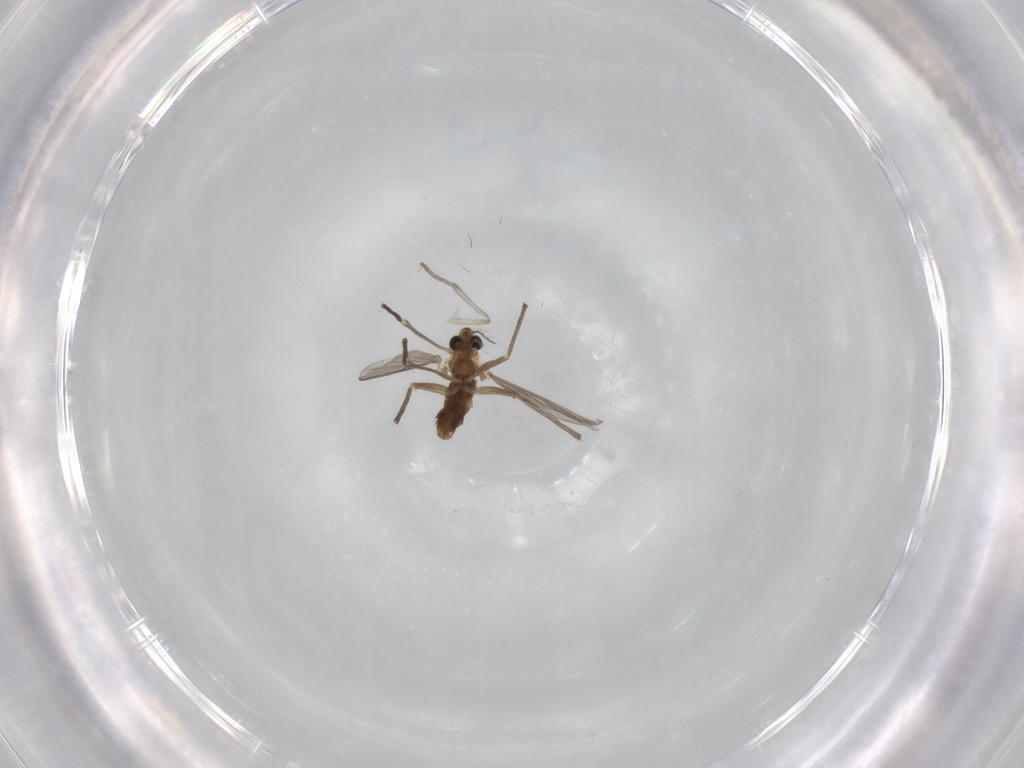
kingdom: Animalia
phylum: Arthropoda
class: Insecta
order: Diptera
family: Chironomidae
